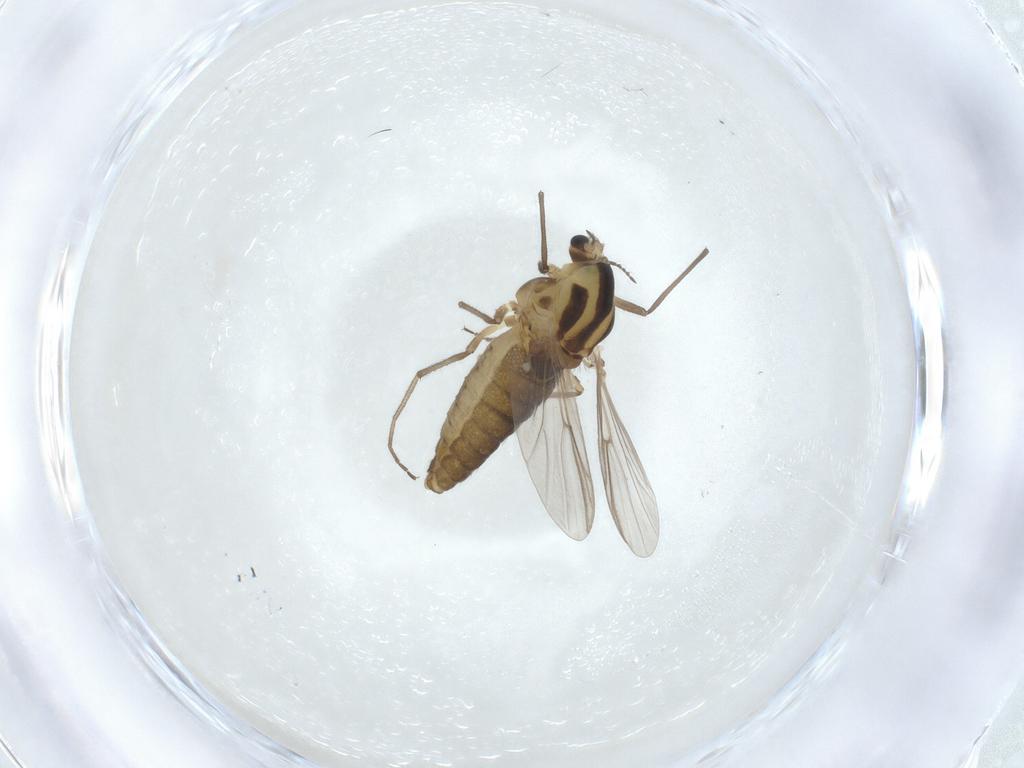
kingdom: Animalia
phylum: Arthropoda
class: Insecta
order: Diptera
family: Chironomidae
